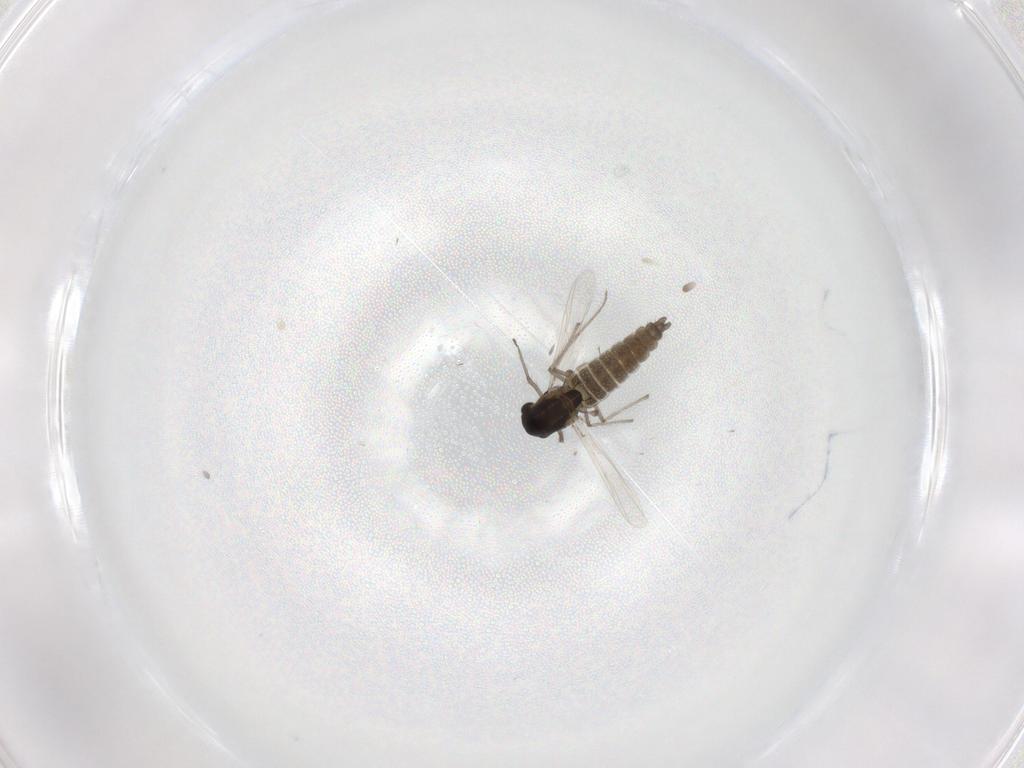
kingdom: Animalia
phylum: Arthropoda
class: Insecta
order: Diptera
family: Chironomidae
